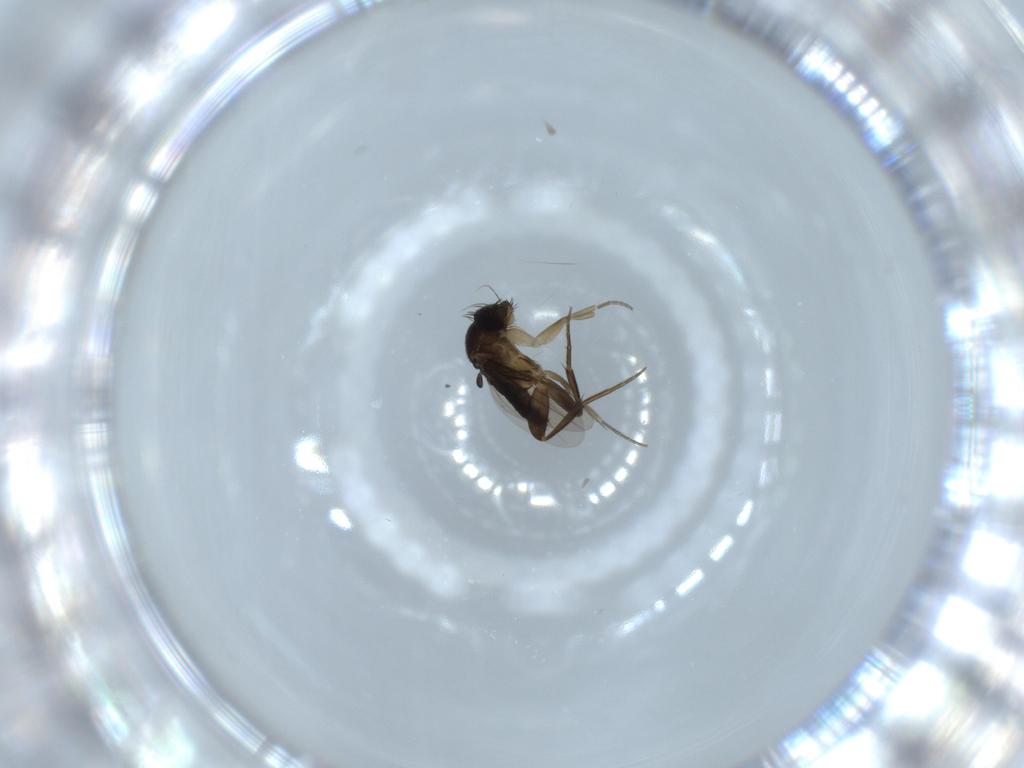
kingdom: Animalia
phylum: Arthropoda
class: Insecta
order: Diptera
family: Phoridae
